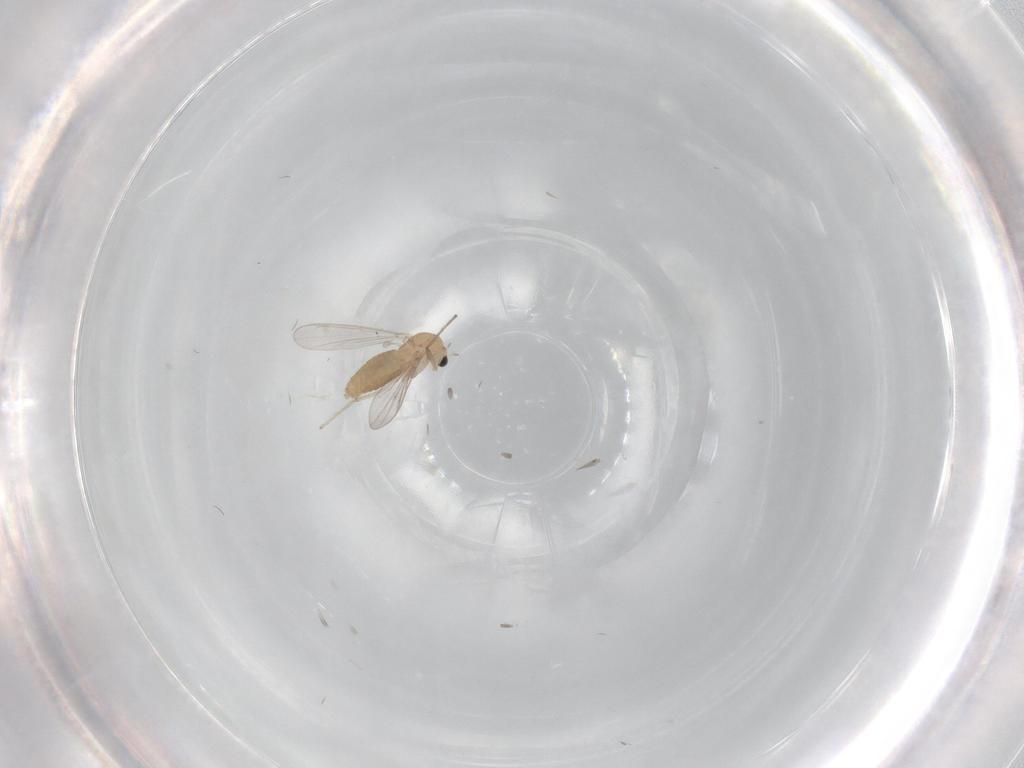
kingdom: Animalia
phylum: Arthropoda
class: Insecta
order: Diptera
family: Chironomidae
